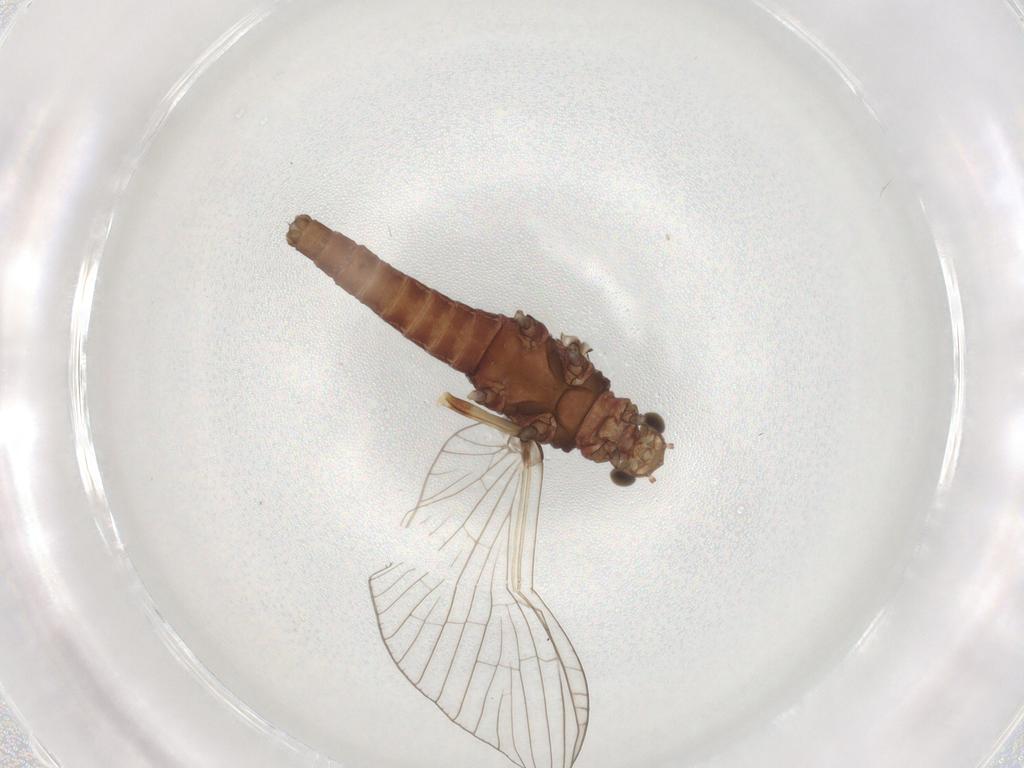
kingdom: Animalia
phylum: Arthropoda
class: Insecta
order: Ephemeroptera
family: Baetidae
